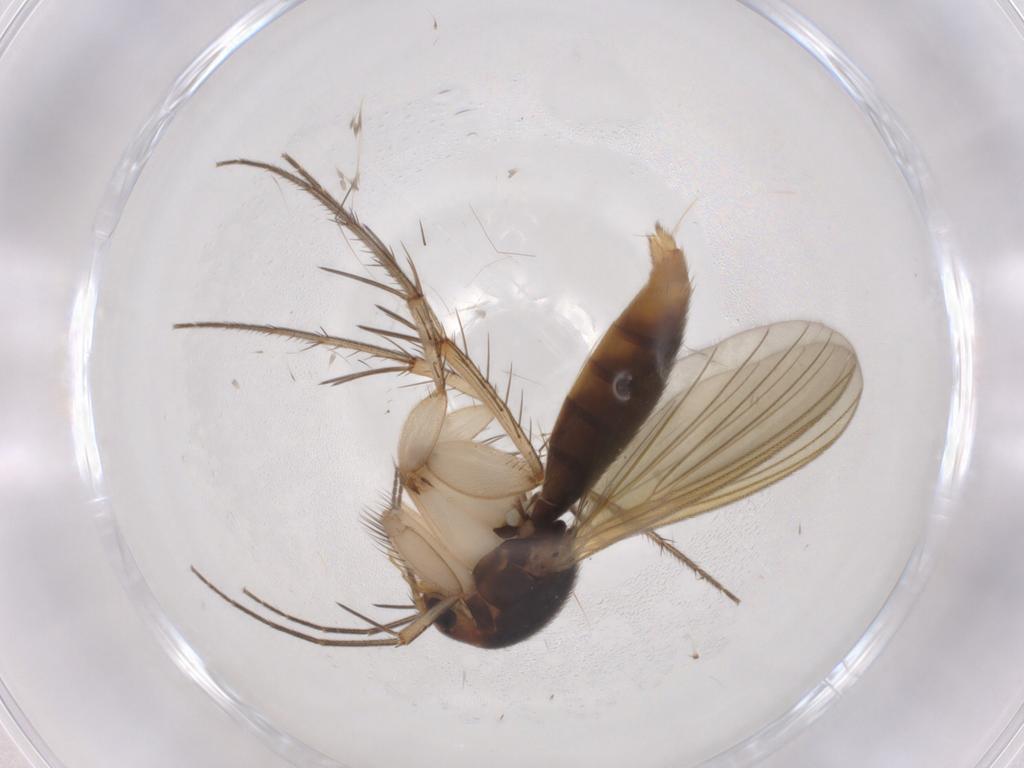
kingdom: Animalia
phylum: Arthropoda
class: Insecta
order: Diptera
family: Mycetophilidae
